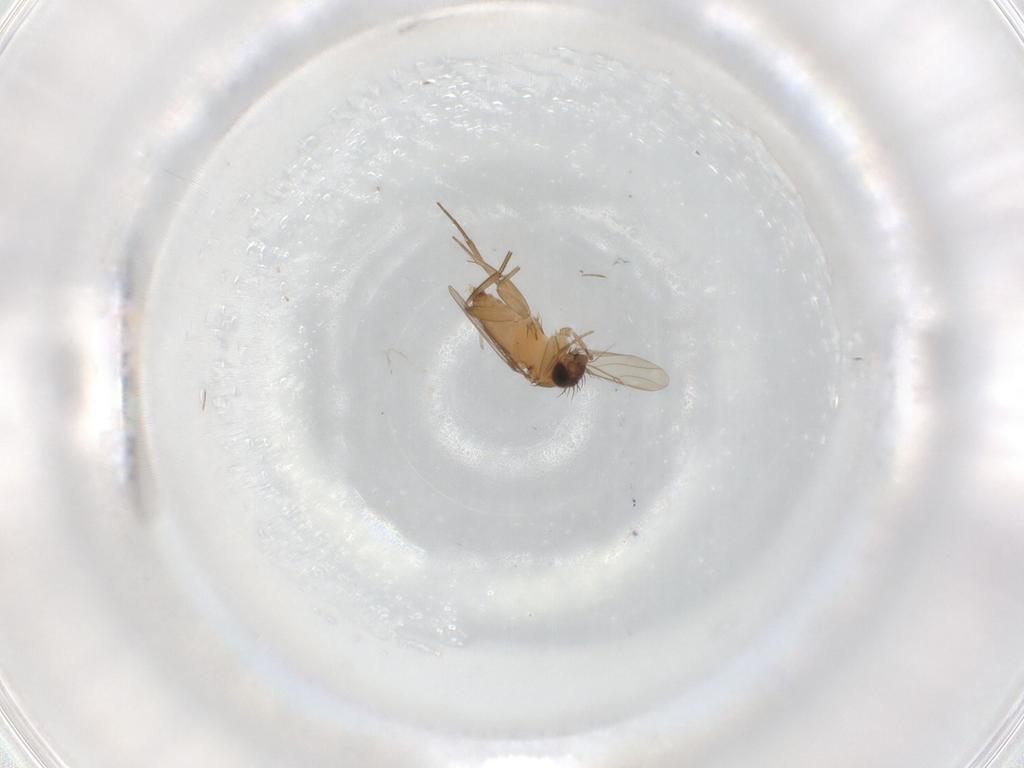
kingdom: Animalia
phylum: Arthropoda
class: Insecta
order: Diptera
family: Phoridae
